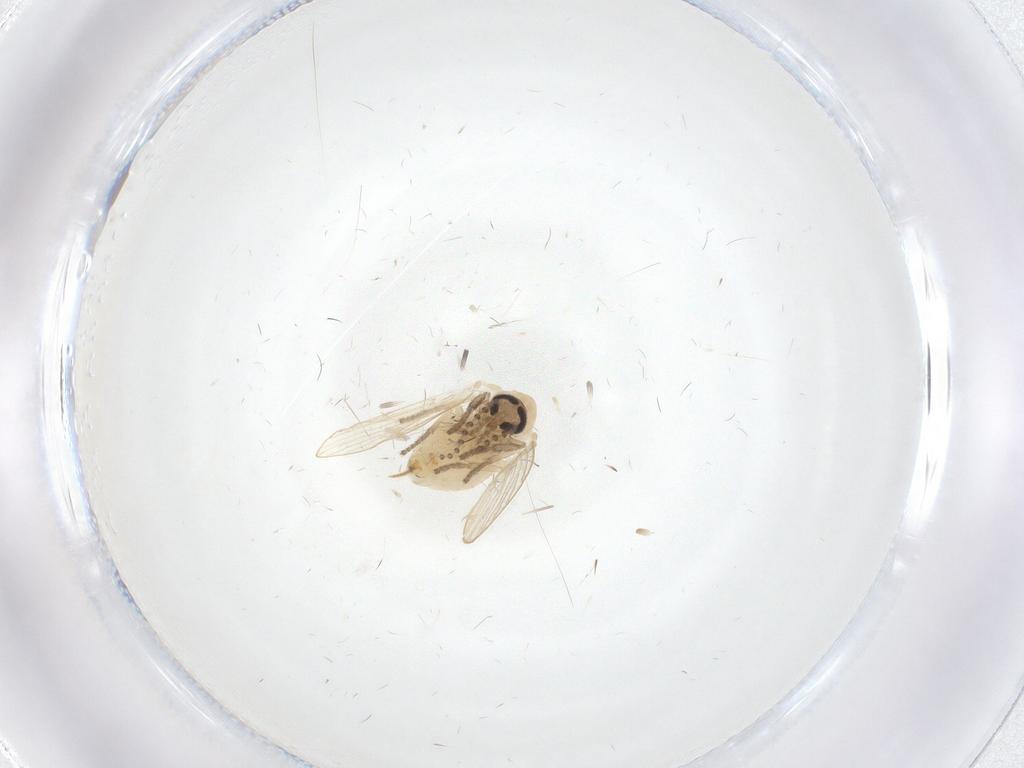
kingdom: Animalia
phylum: Arthropoda
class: Insecta
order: Diptera
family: Psychodidae
